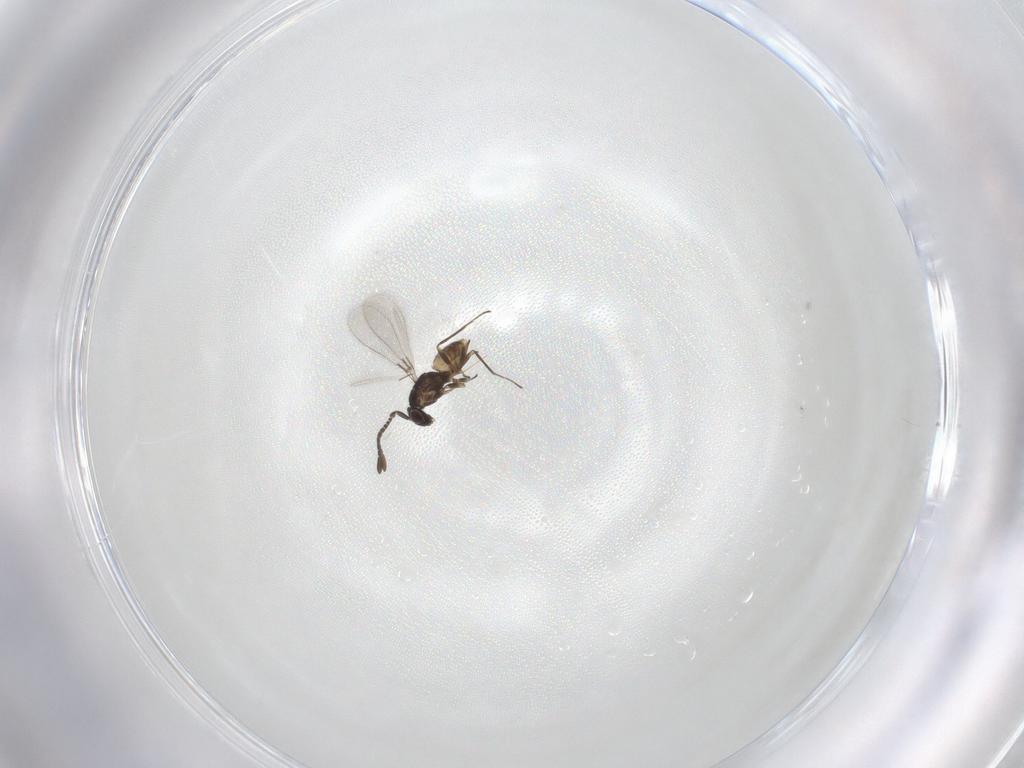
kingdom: Animalia
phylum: Arthropoda
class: Insecta
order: Hymenoptera
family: Mymaridae
